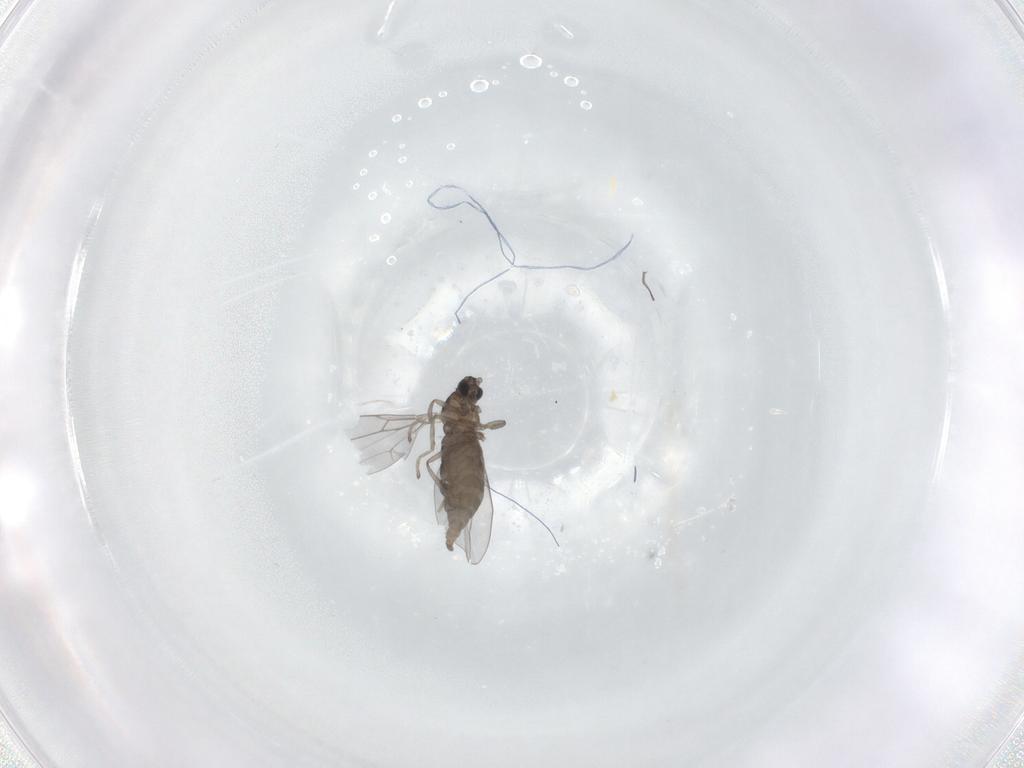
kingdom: Animalia
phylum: Arthropoda
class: Insecta
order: Diptera
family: Cecidomyiidae
